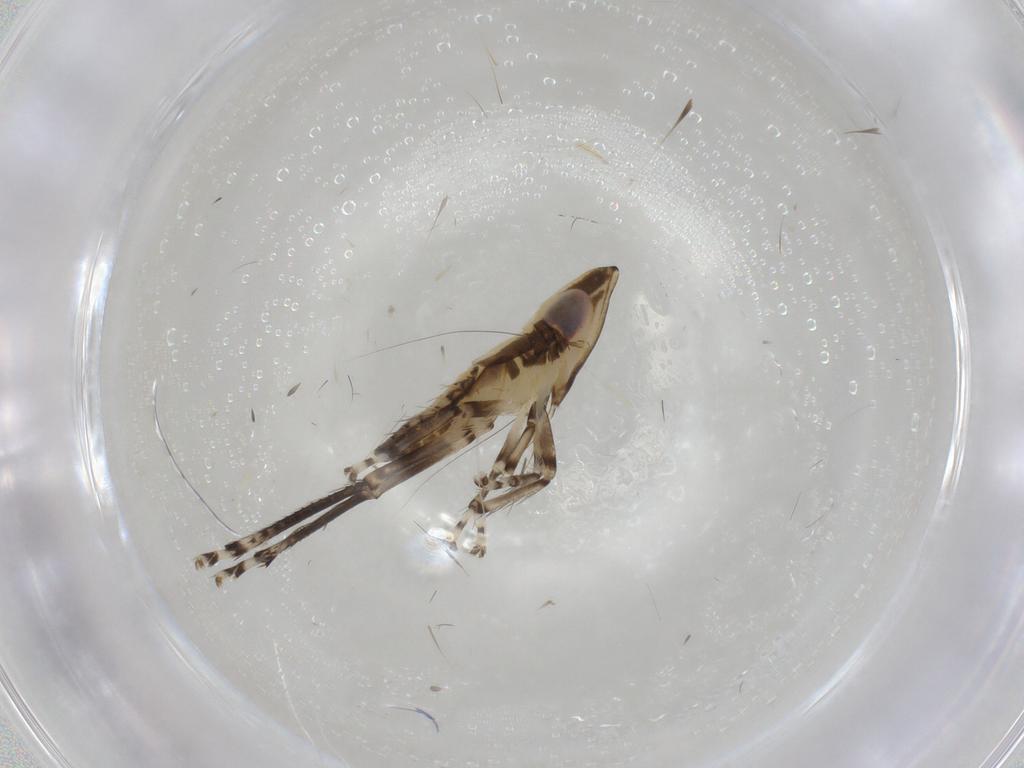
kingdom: Animalia
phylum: Arthropoda
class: Insecta
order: Hemiptera
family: Cicadellidae
